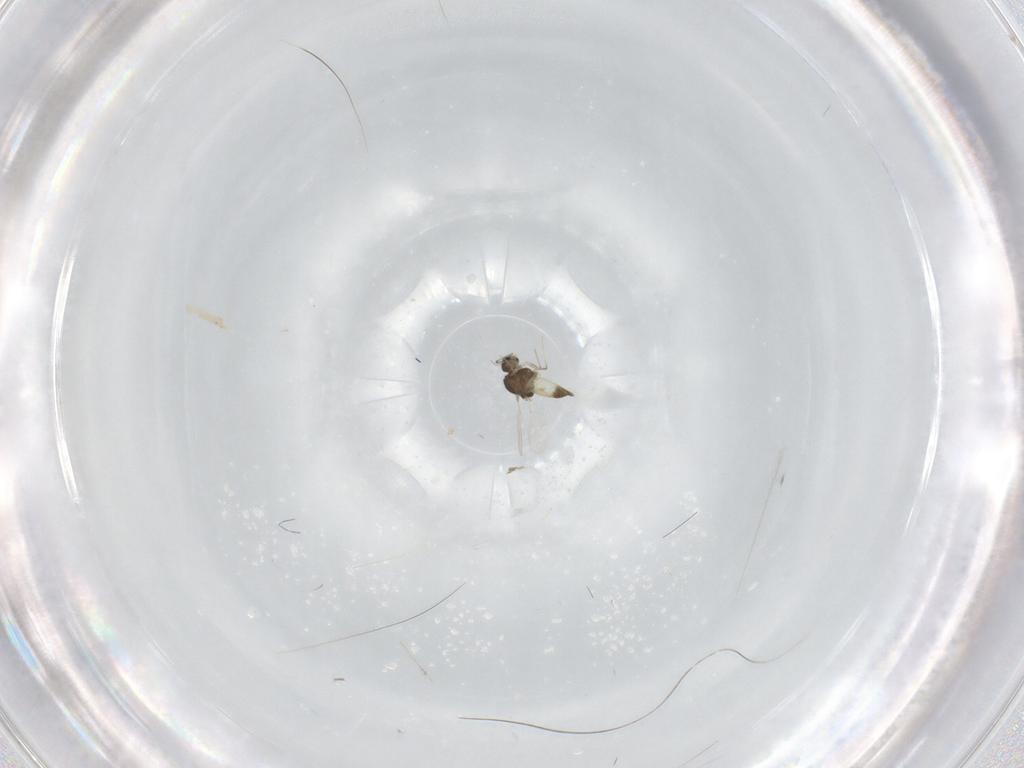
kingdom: Animalia
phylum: Arthropoda
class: Insecta
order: Diptera
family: Chironomidae
